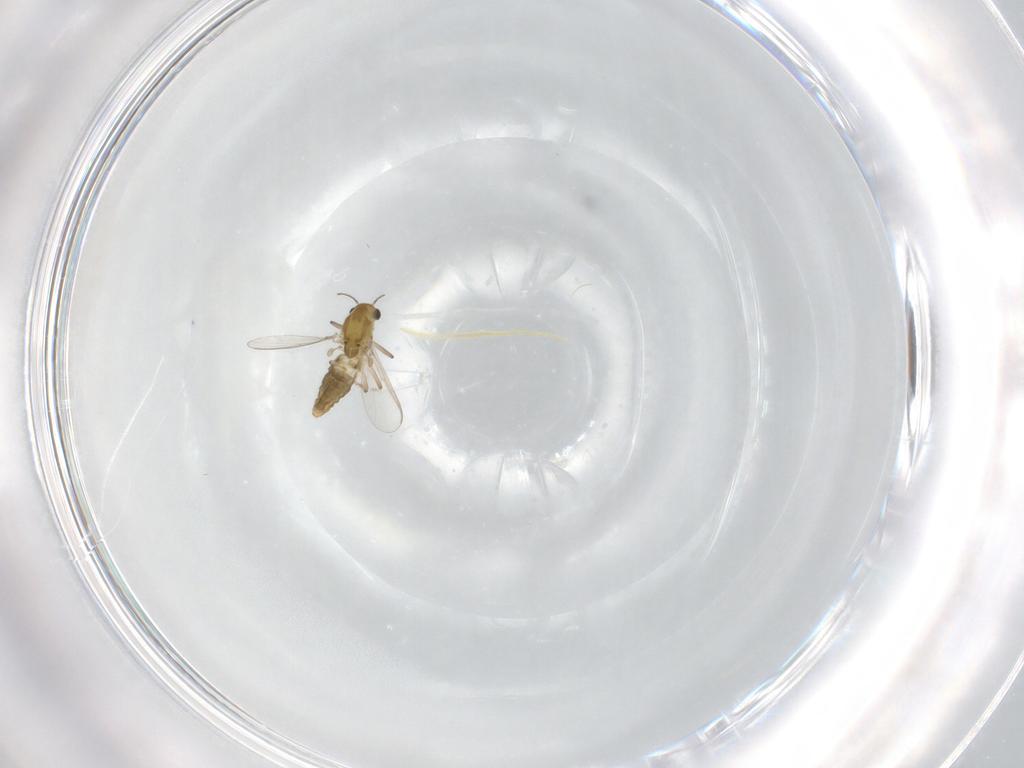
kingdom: Animalia
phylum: Arthropoda
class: Insecta
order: Diptera
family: Chironomidae
